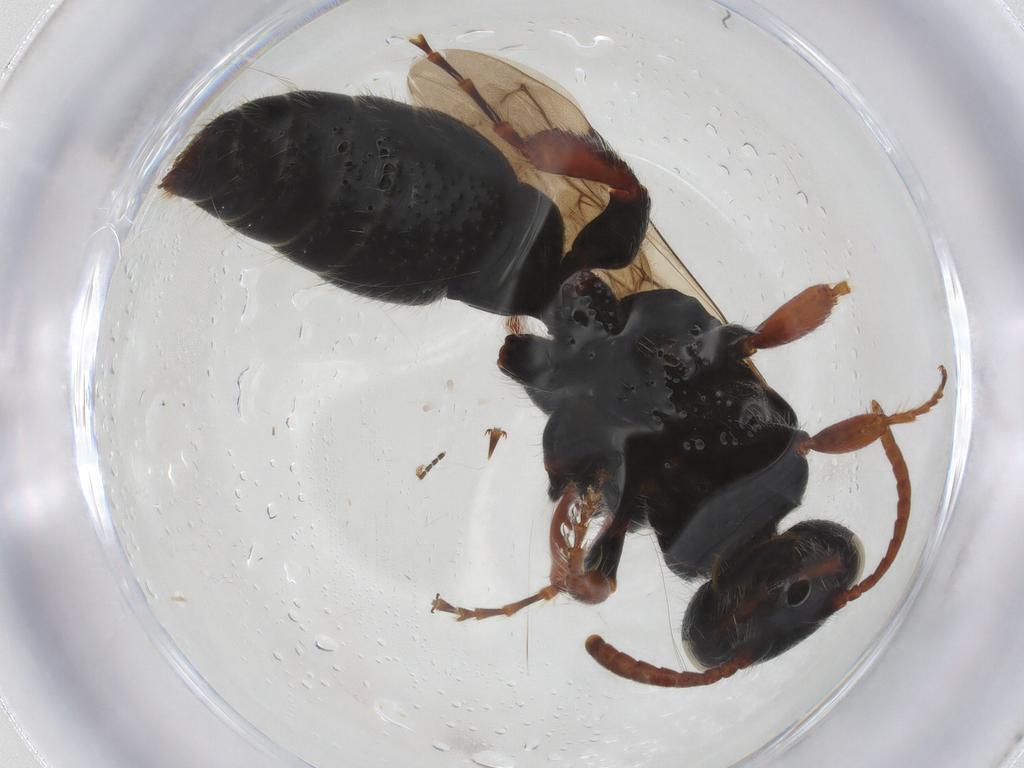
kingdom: Animalia
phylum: Arthropoda
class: Insecta
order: Hymenoptera
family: Tiphiidae
